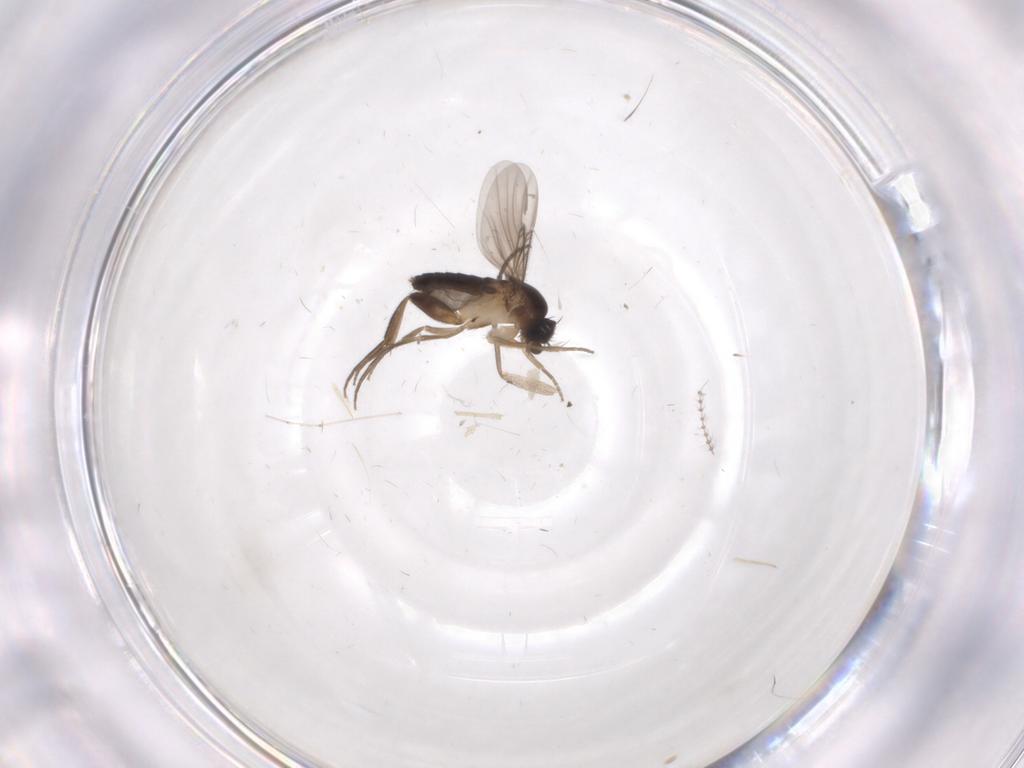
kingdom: Animalia
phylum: Arthropoda
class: Insecta
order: Diptera
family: Phoridae
